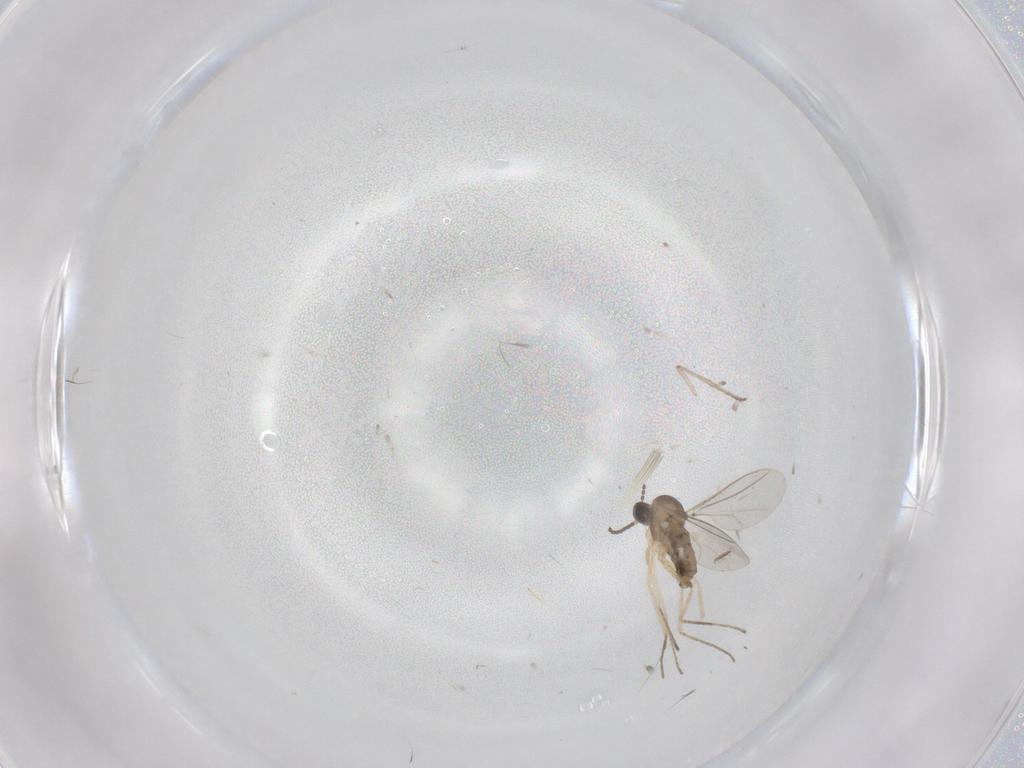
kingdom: Animalia
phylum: Arthropoda
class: Insecta
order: Diptera
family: Psychodidae
